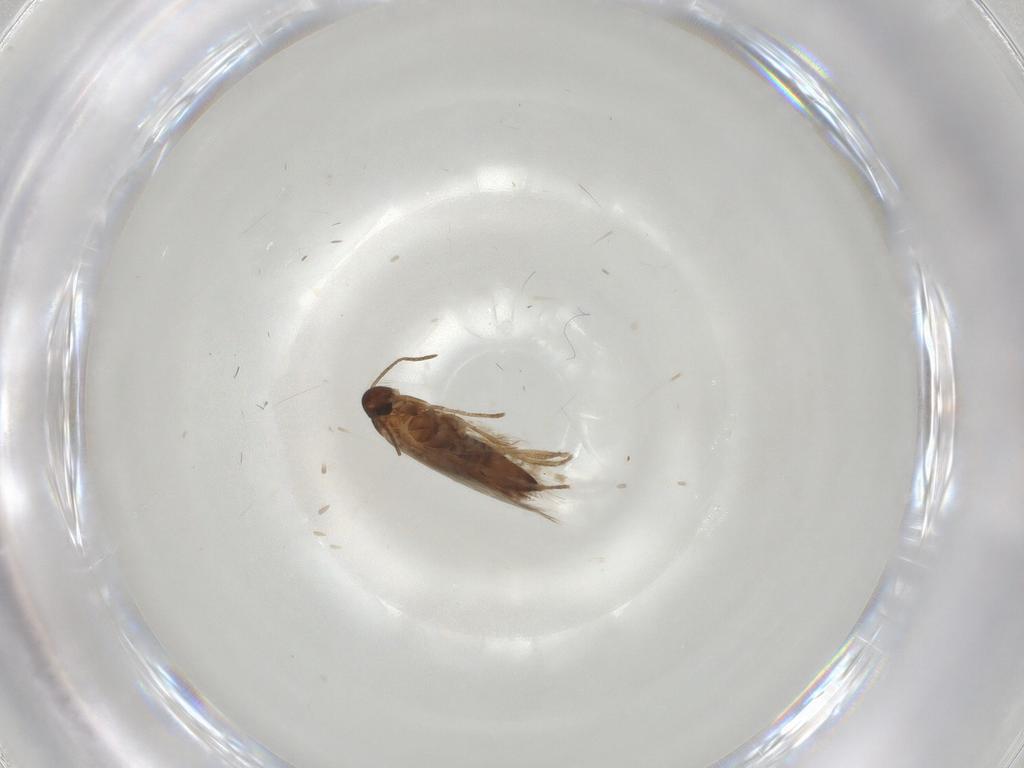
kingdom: Animalia
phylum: Arthropoda
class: Insecta
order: Lepidoptera
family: Heliozelidae
